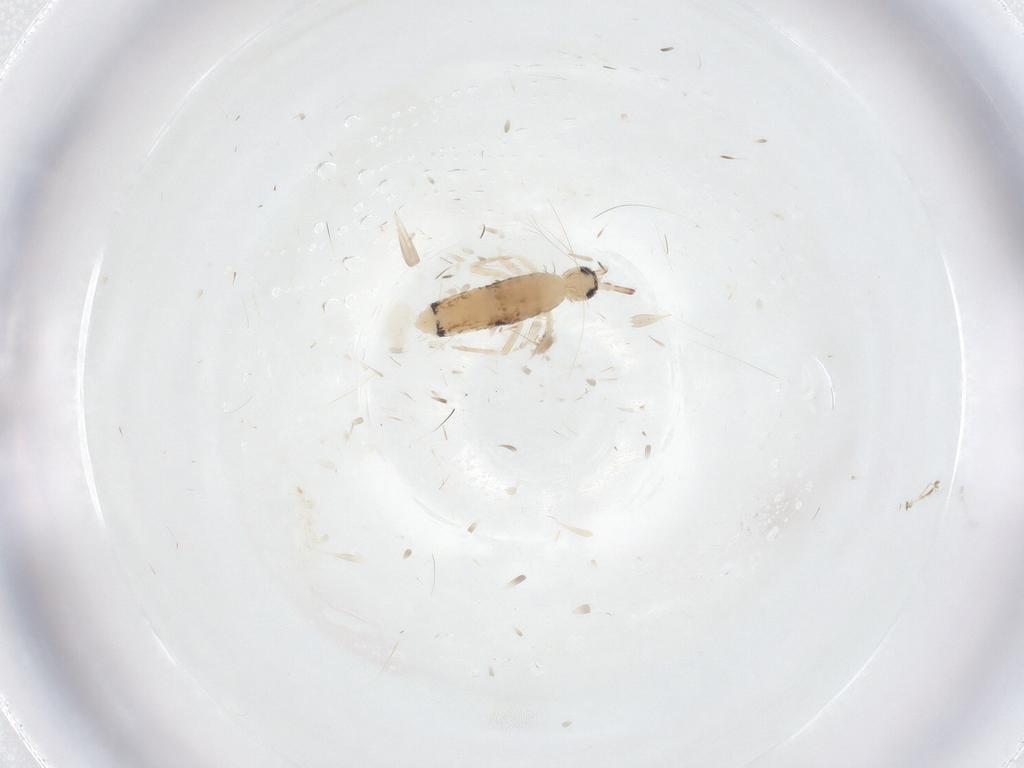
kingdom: Animalia
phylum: Arthropoda
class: Collembola
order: Entomobryomorpha
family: Entomobryidae
